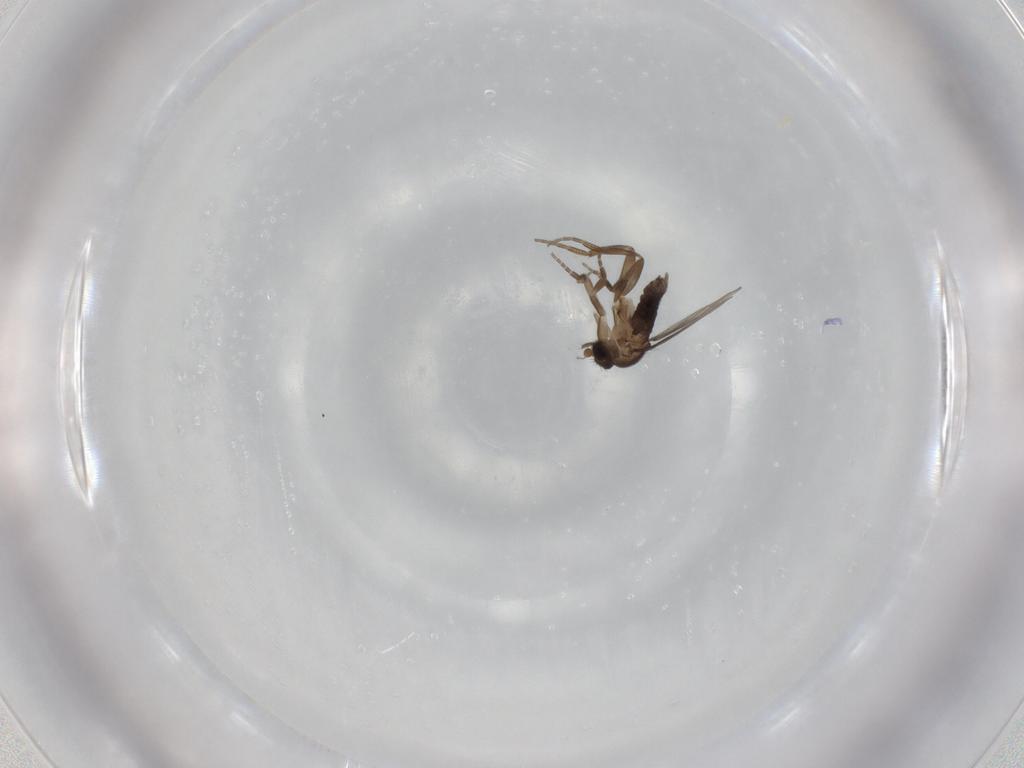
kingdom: Animalia
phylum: Arthropoda
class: Insecta
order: Diptera
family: Phoridae
